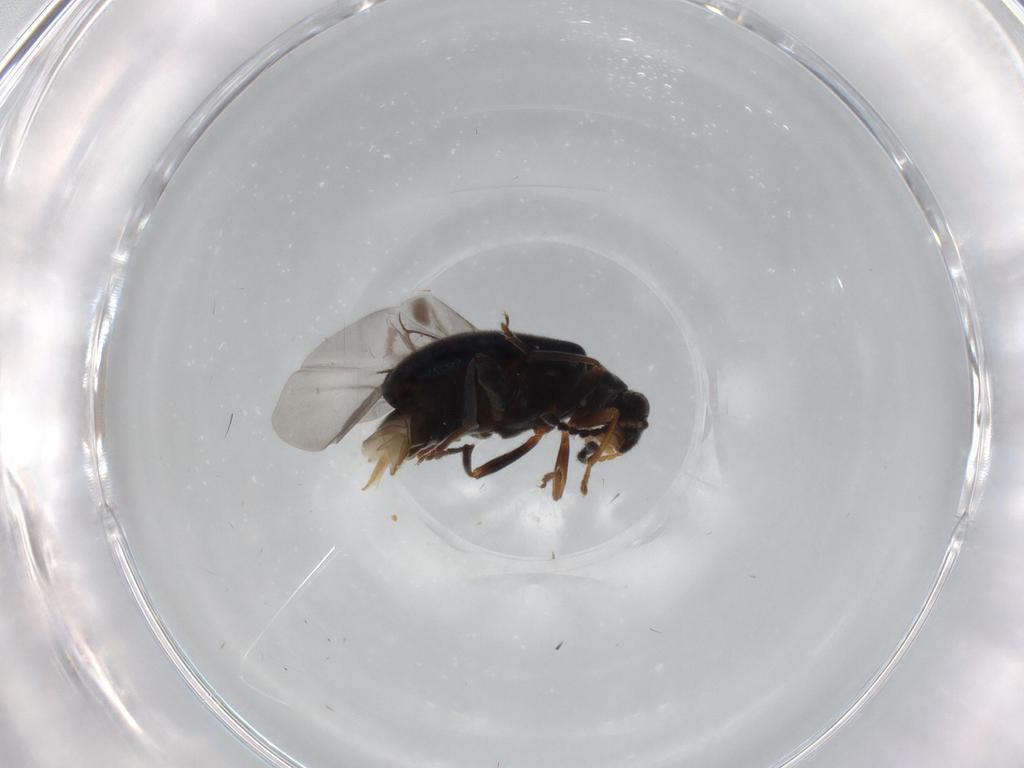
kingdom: Animalia
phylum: Arthropoda
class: Insecta
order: Coleoptera
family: Aderidae
